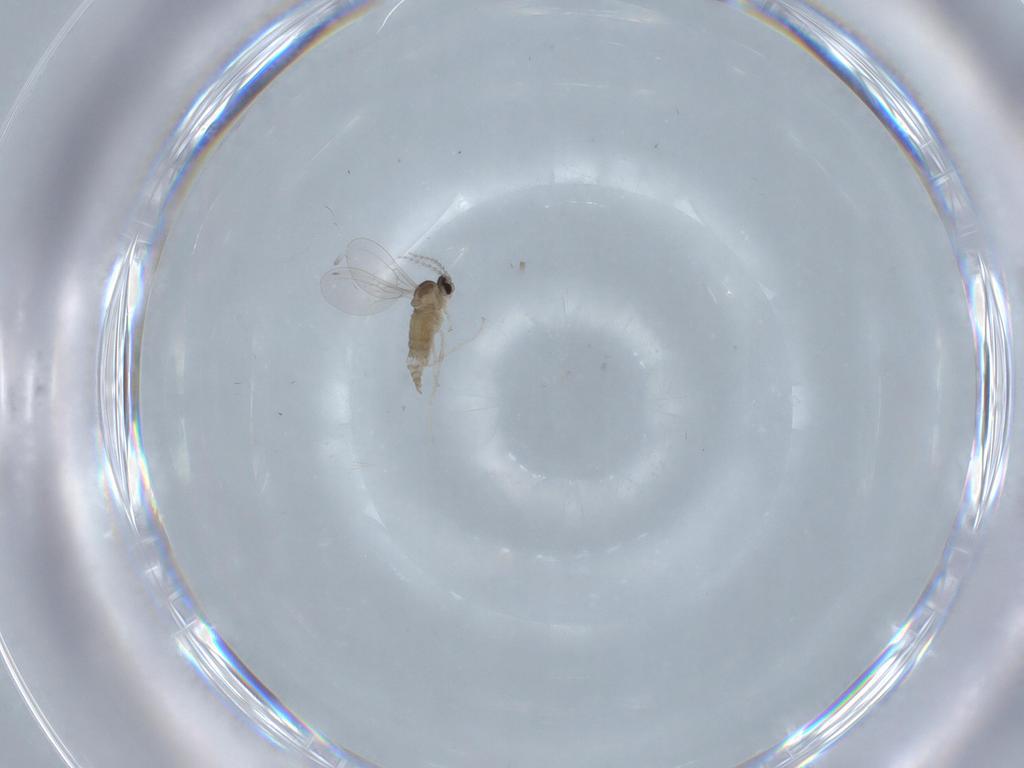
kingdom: Animalia
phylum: Arthropoda
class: Insecta
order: Diptera
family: Cecidomyiidae
